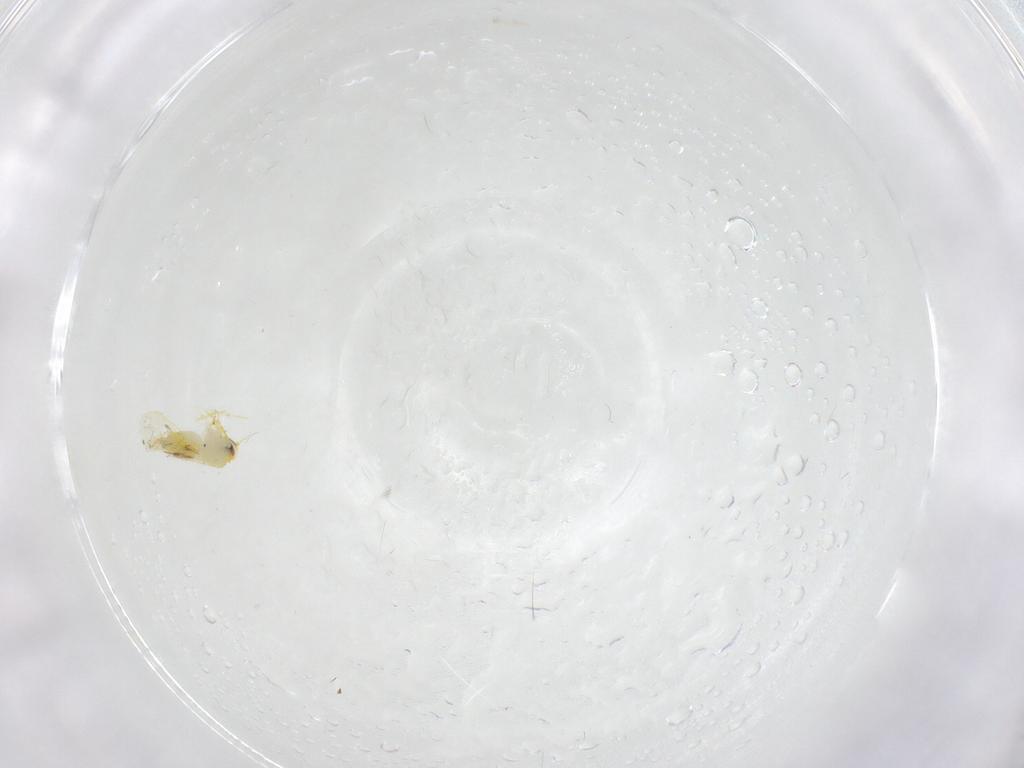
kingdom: Animalia
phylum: Arthropoda
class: Insecta
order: Hemiptera
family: Aleyrodidae
